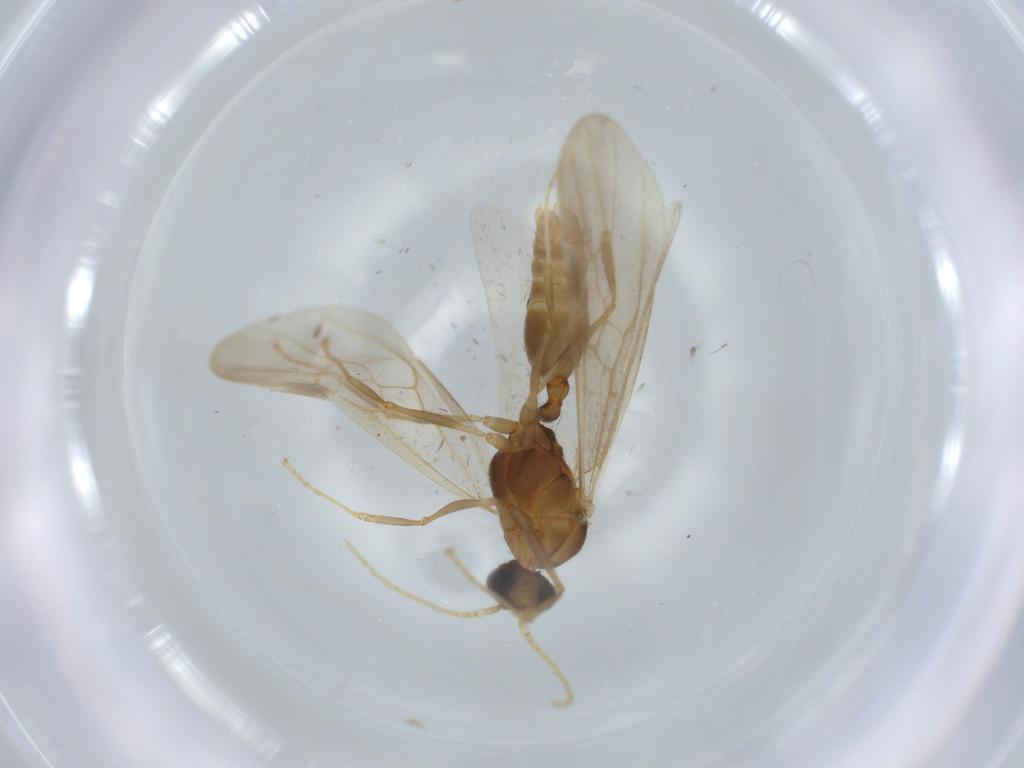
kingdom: Animalia
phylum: Arthropoda
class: Insecta
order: Hymenoptera
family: Formicidae
